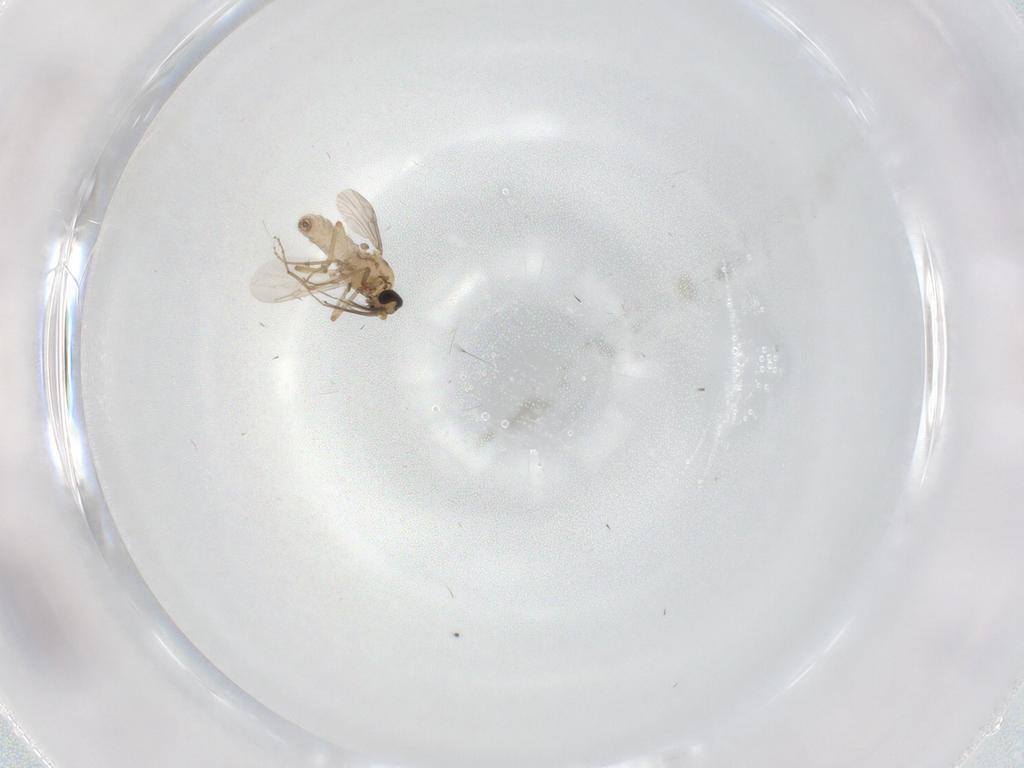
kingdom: Animalia
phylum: Arthropoda
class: Insecta
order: Diptera
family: Ceratopogonidae
